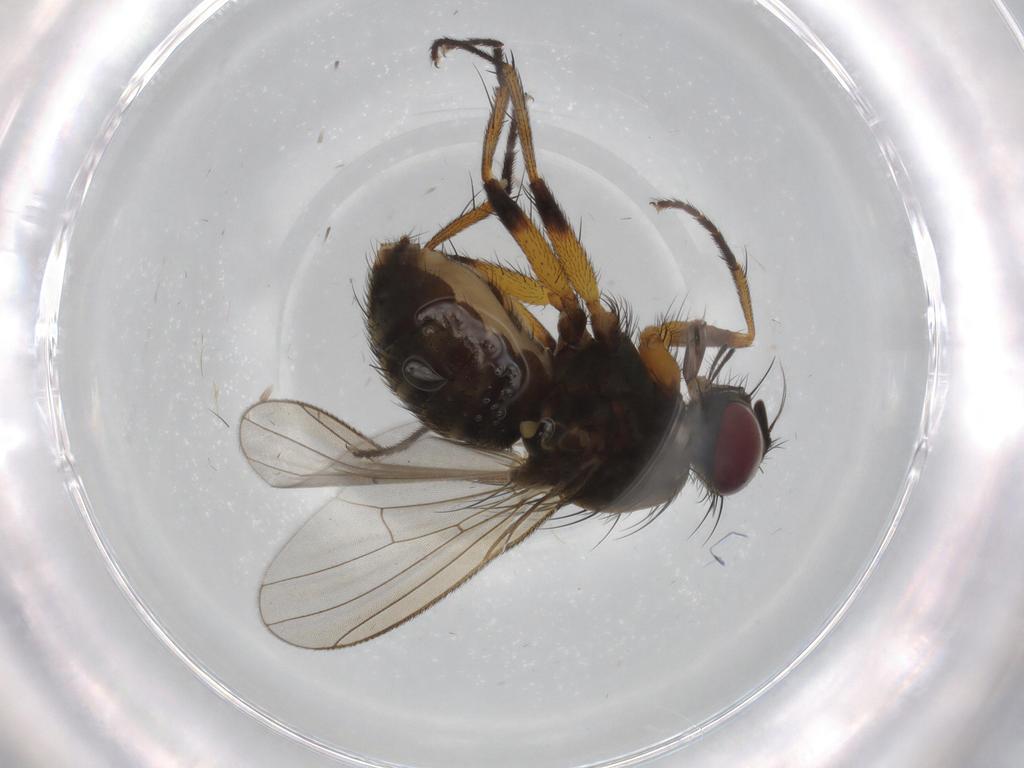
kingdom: Animalia
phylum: Arthropoda
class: Insecta
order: Diptera
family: Muscidae
